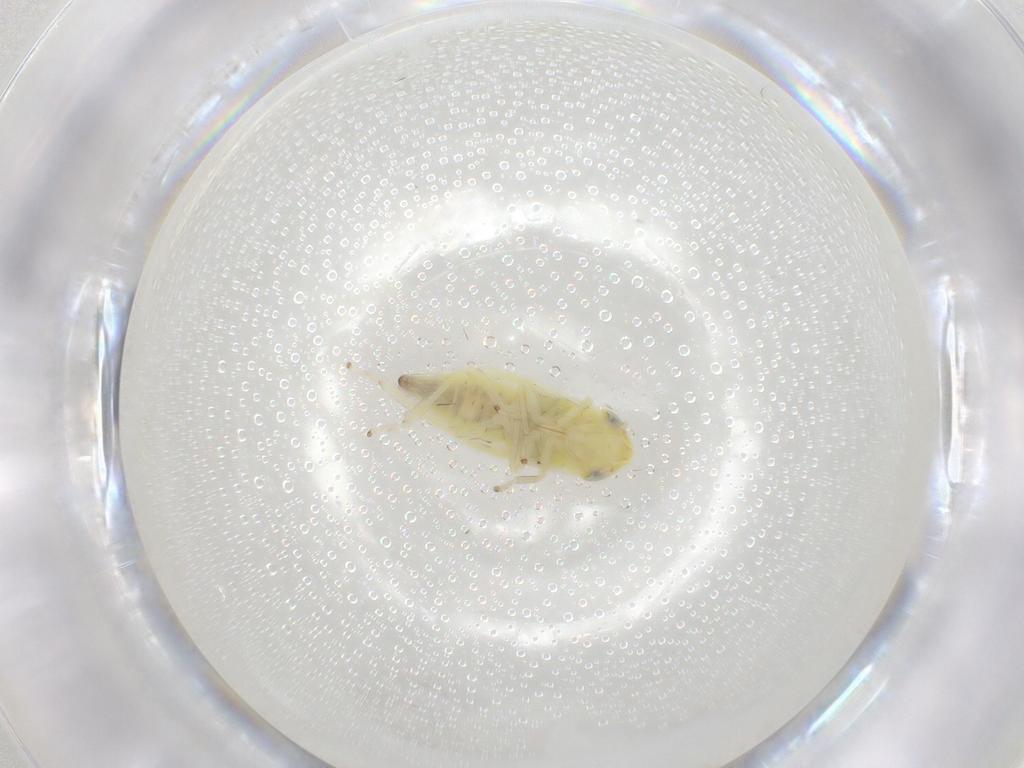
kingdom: Animalia
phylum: Arthropoda
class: Insecta
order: Hemiptera
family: Cicadellidae
